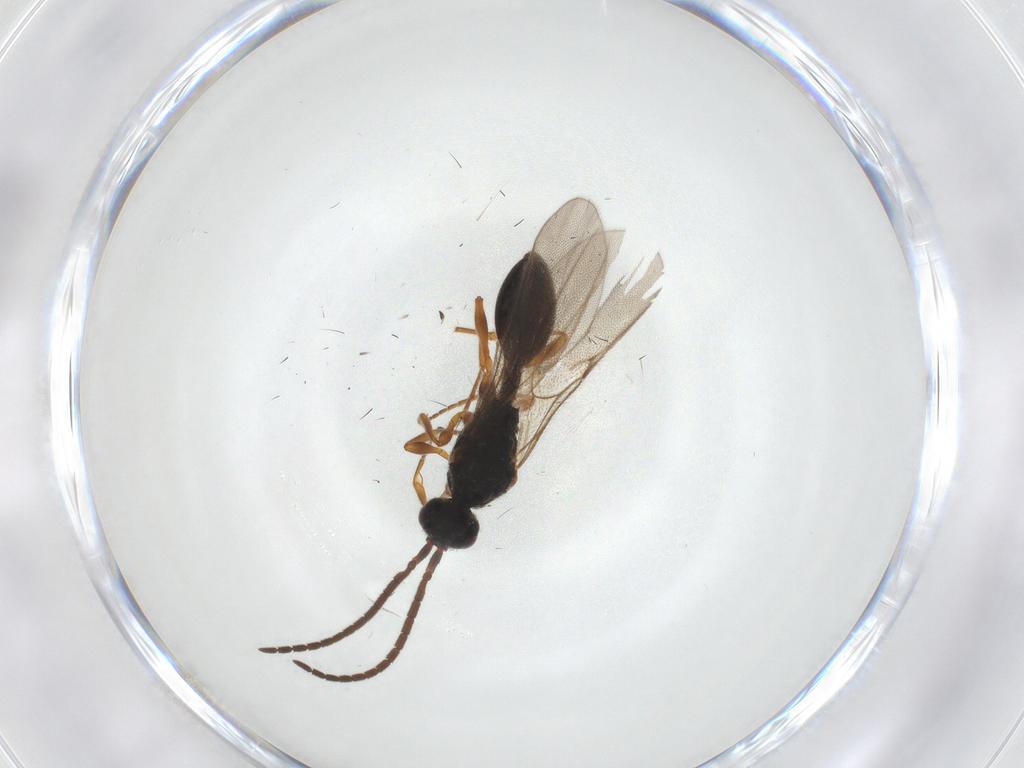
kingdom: Animalia
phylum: Arthropoda
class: Insecta
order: Hymenoptera
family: Diapriidae
